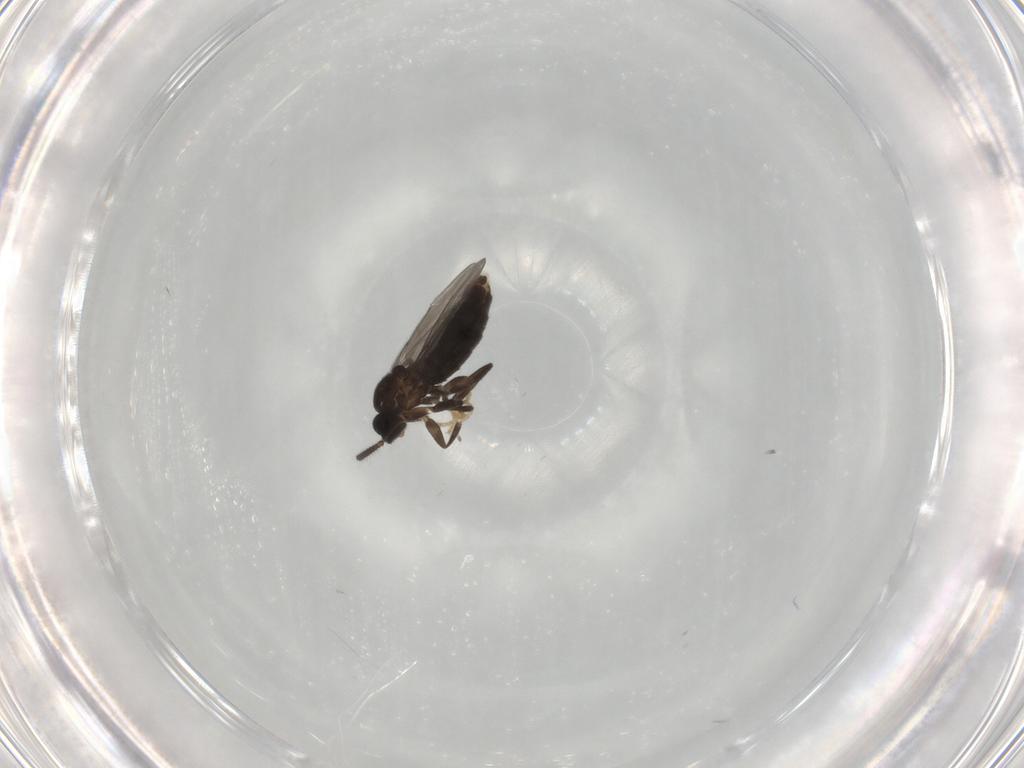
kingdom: Animalia
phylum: Arthropoda
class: Insecta
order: Diptera
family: Scatopsidae
